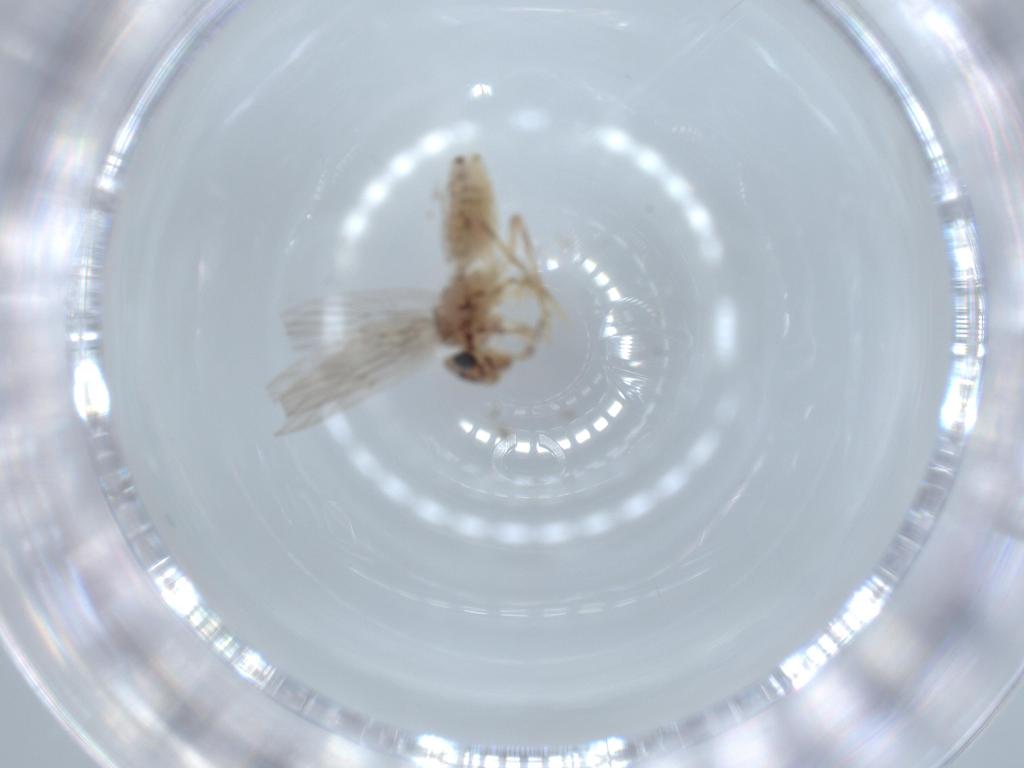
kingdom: Animalia
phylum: Arthropoda
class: Insecta
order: Psocodea
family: Lepidopsocidae
